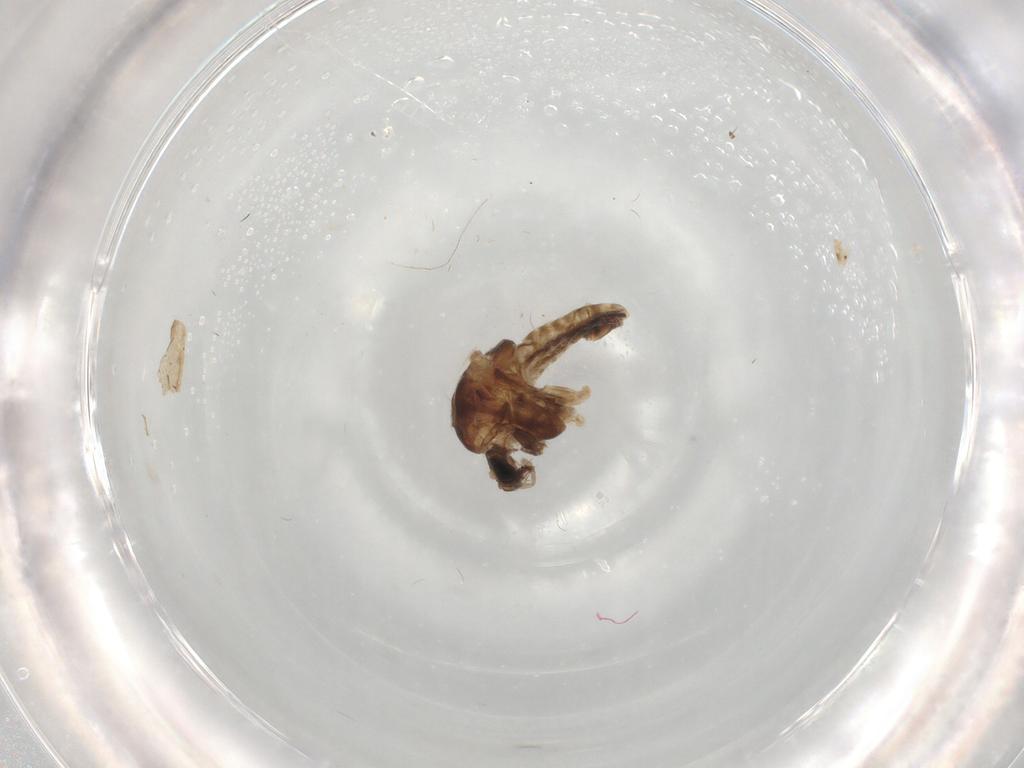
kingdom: Animalia
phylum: Arthropoda
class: Insecta
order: Diptera
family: Chironomidae
